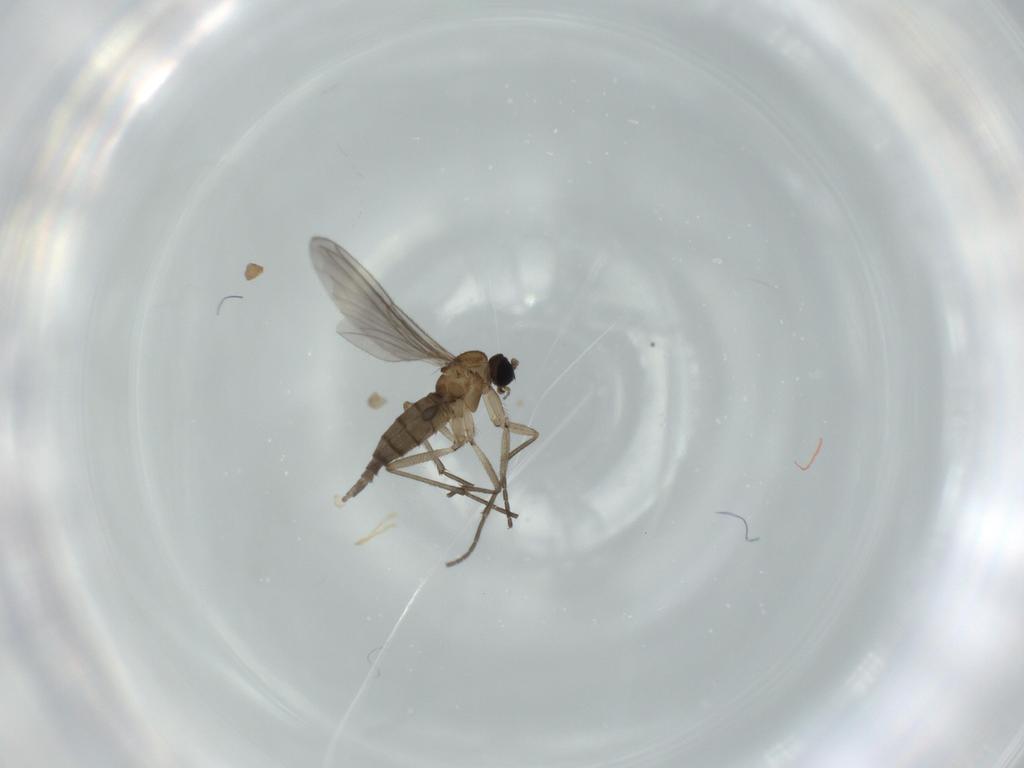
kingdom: Animalia
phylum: Arthropoda
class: Insecta
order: Diptera
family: Sciaridae
